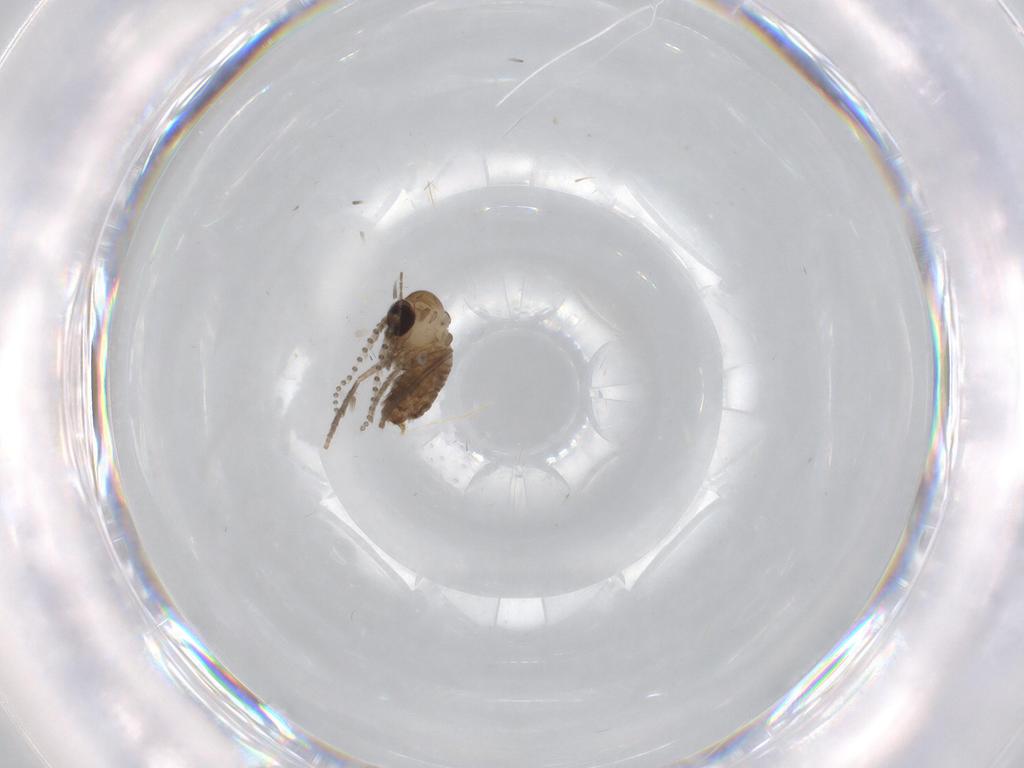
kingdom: Animalia
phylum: Arthropoda
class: Insecta
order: Diptera
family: Psychodidae
